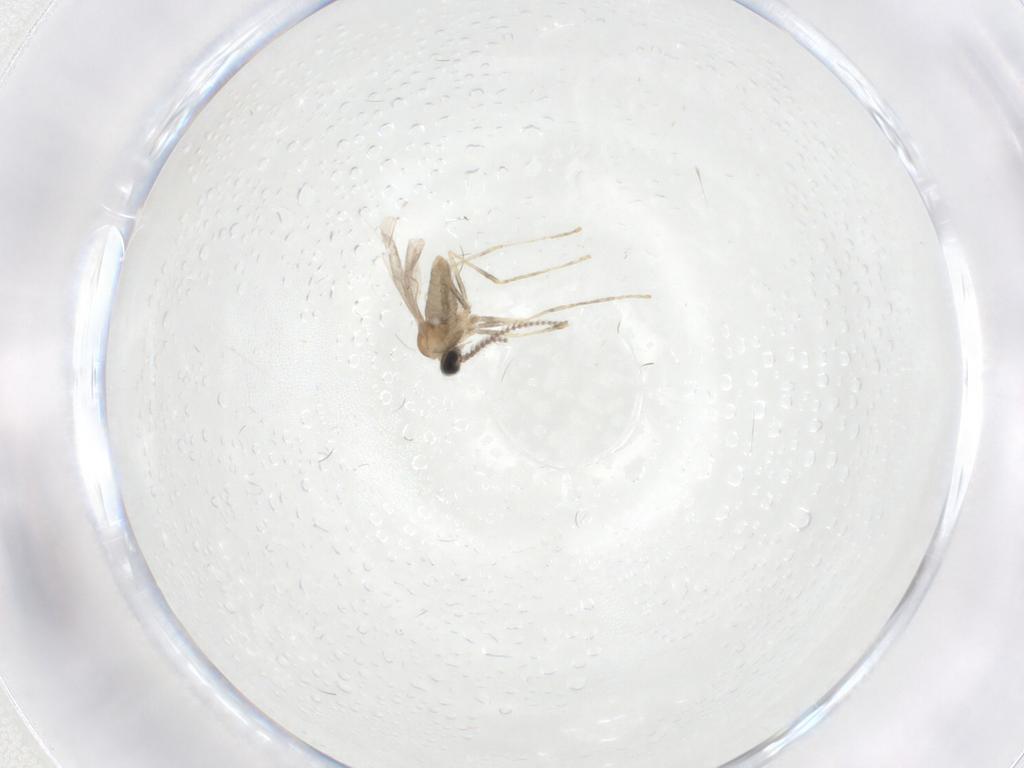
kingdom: Animalia
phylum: Arthropoda
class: Insecta
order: Diptera
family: Cecidomyiidae
